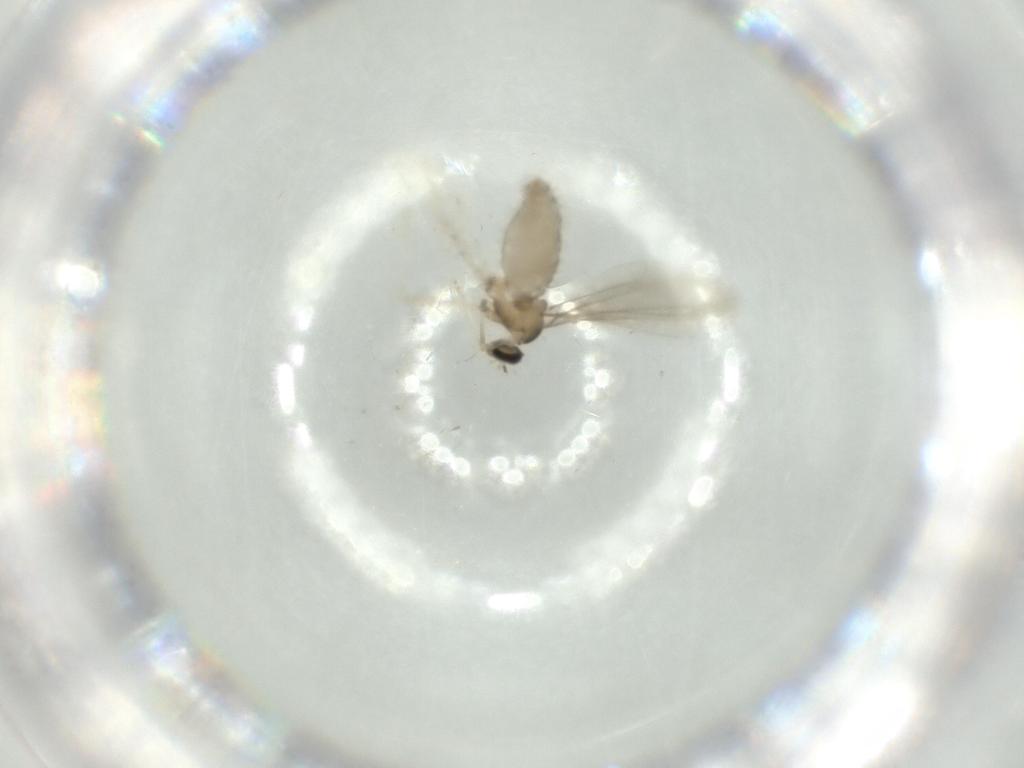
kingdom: Animalia
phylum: Arthropoda
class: Insecta
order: Diptera
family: Cecidomyiidae
